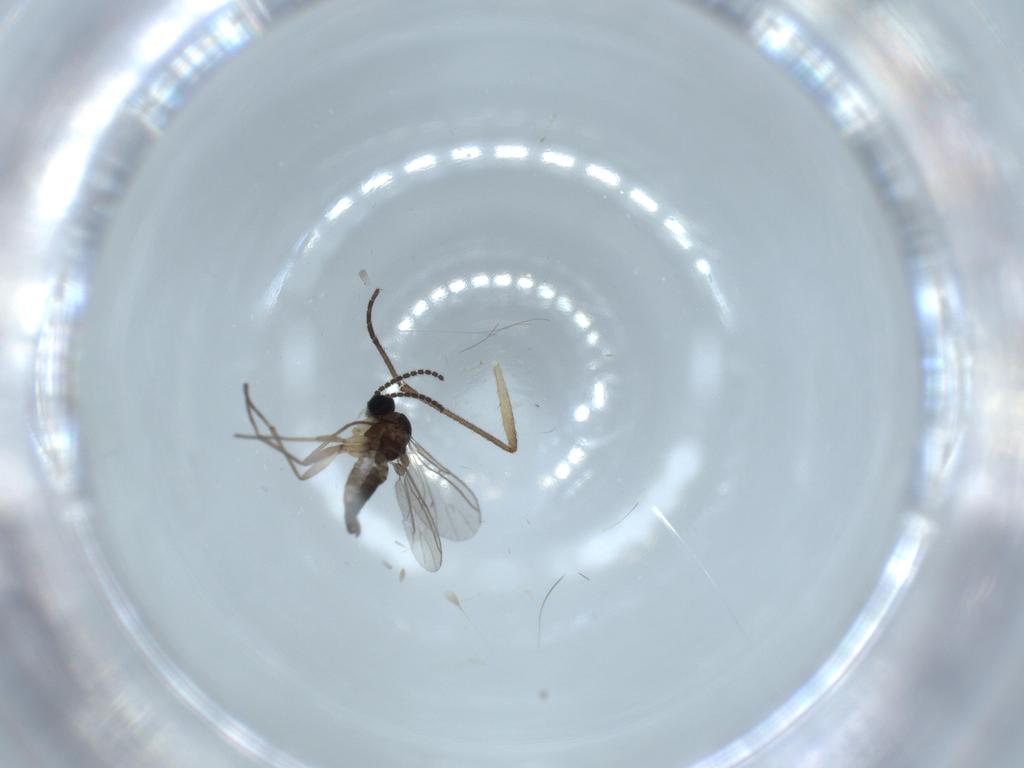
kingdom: Animalia
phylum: Arthropoda
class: Insecta
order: Diptera
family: Sciaridae
